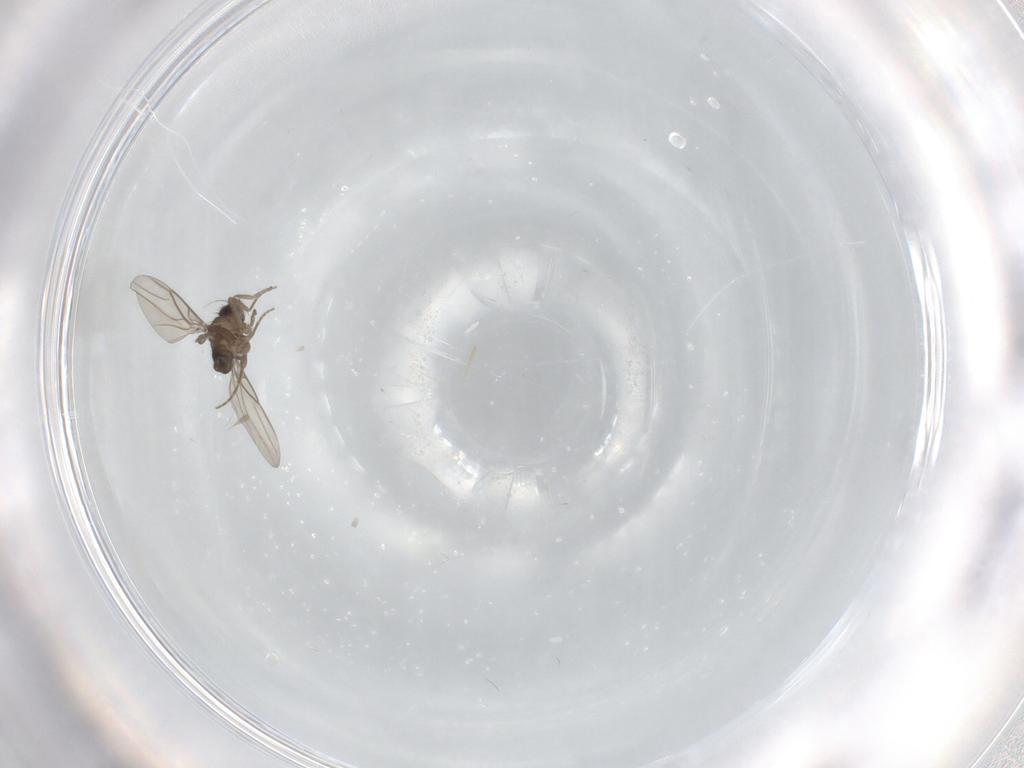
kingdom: Animalia
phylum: Arthropoda
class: Insecta
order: Diptera
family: Phoridae
